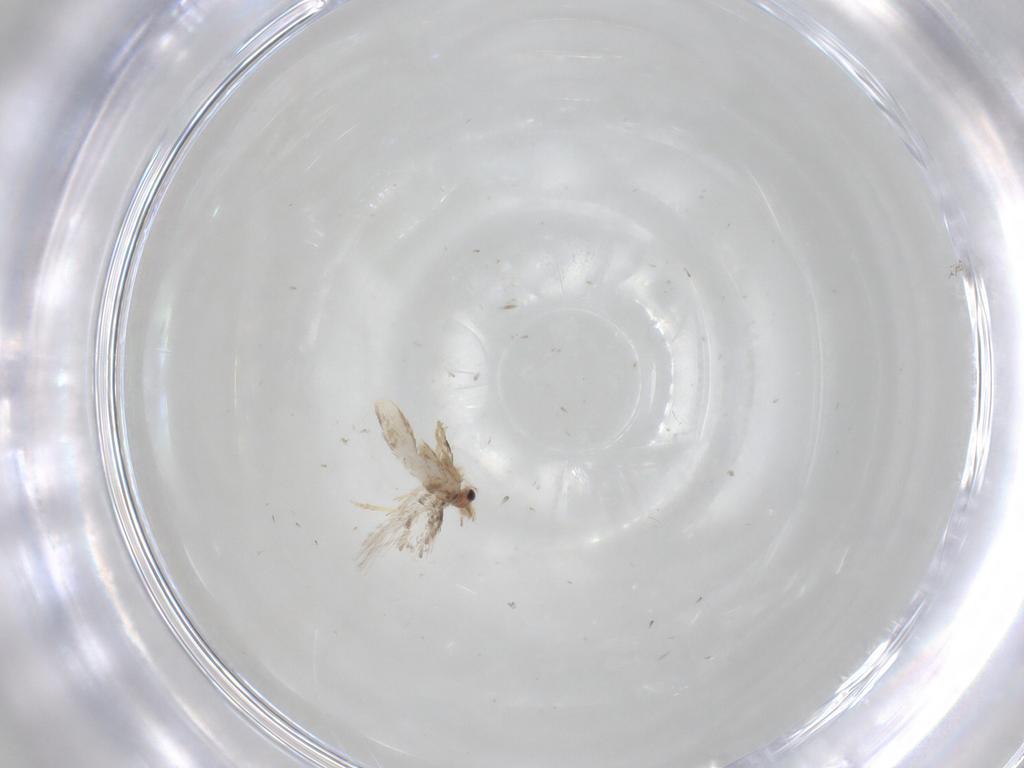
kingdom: Animalia
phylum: Arthropoda
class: Insecta
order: Lepidoptera
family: Nepticulidae
